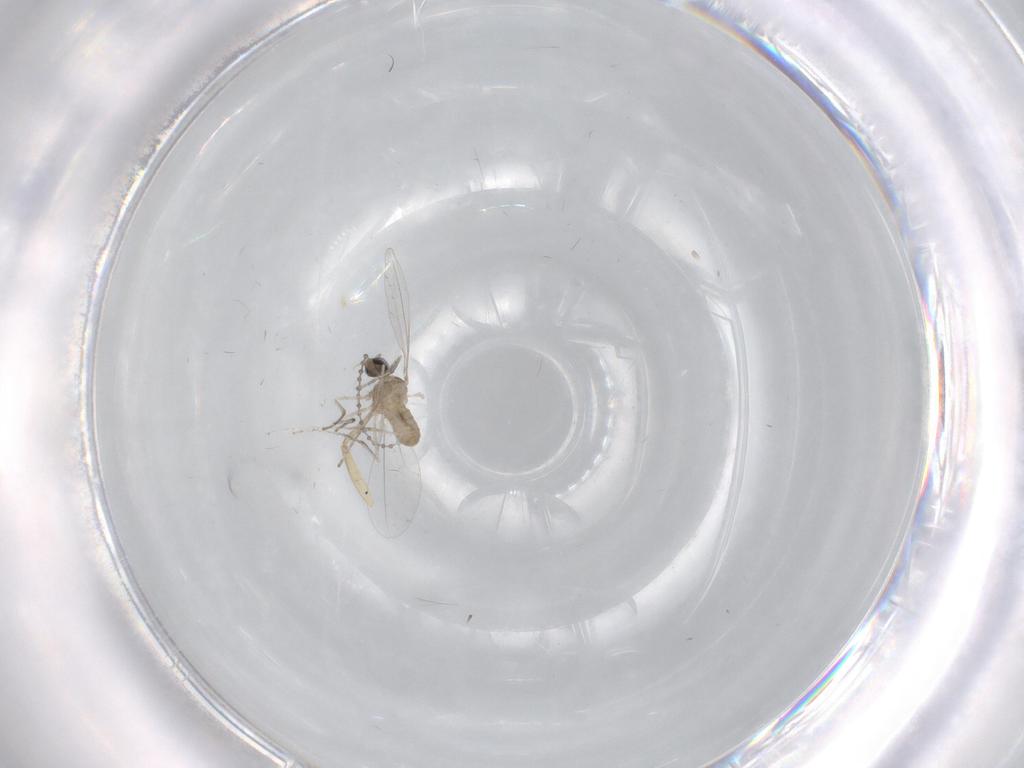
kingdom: Animalia
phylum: Arthropoda
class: Insecta
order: Diptera
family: Cecidomyiidae
